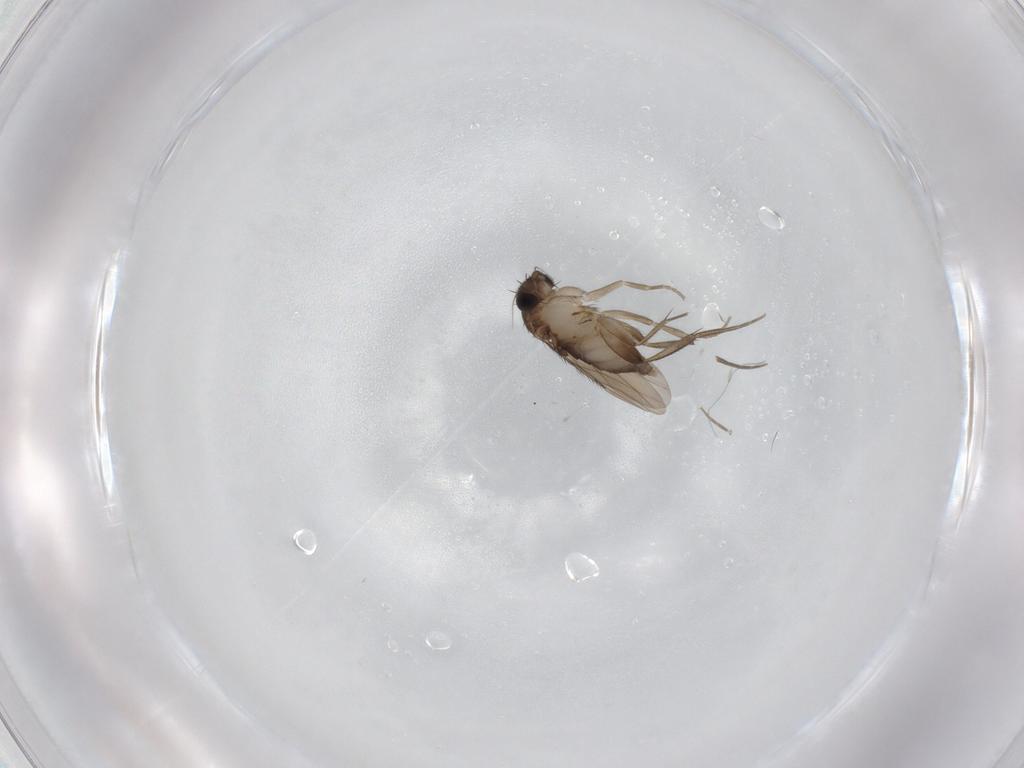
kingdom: Animalia
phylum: Arthropoda
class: Insecta
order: Diptera
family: Phoridae
